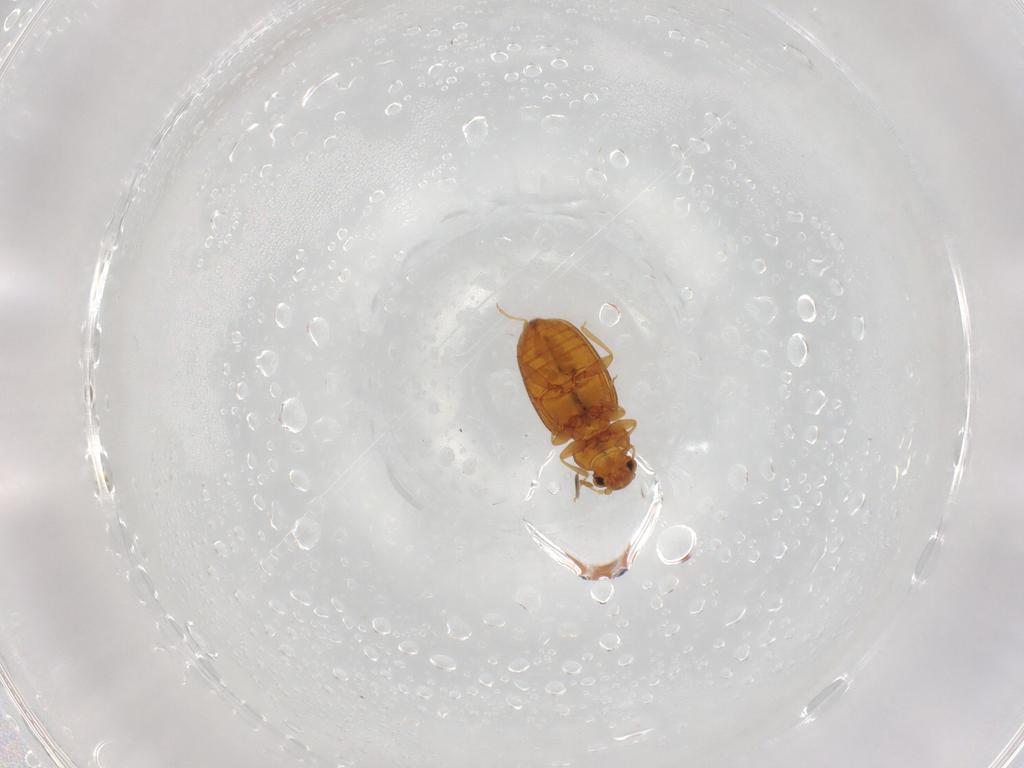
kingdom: Animalia
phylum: Arthropoda
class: Insecta
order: Coleoptera
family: Latridiidae
